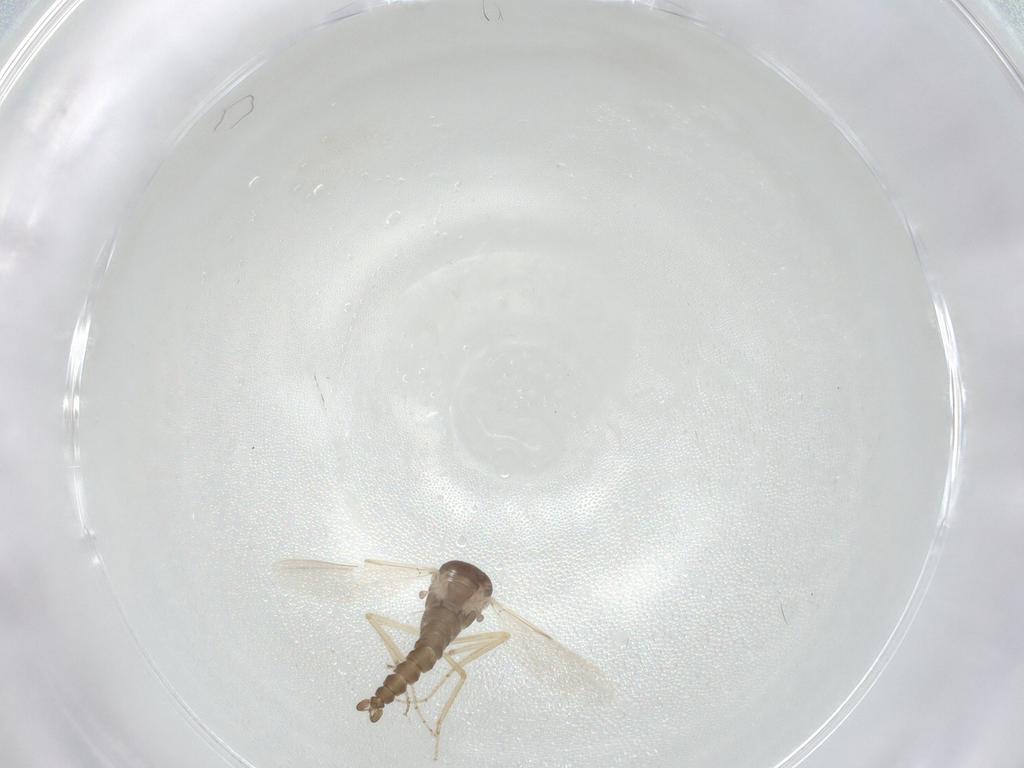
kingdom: Animalia
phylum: Arthropoda
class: Insecta
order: Diptera
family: Ceratopogonidae
